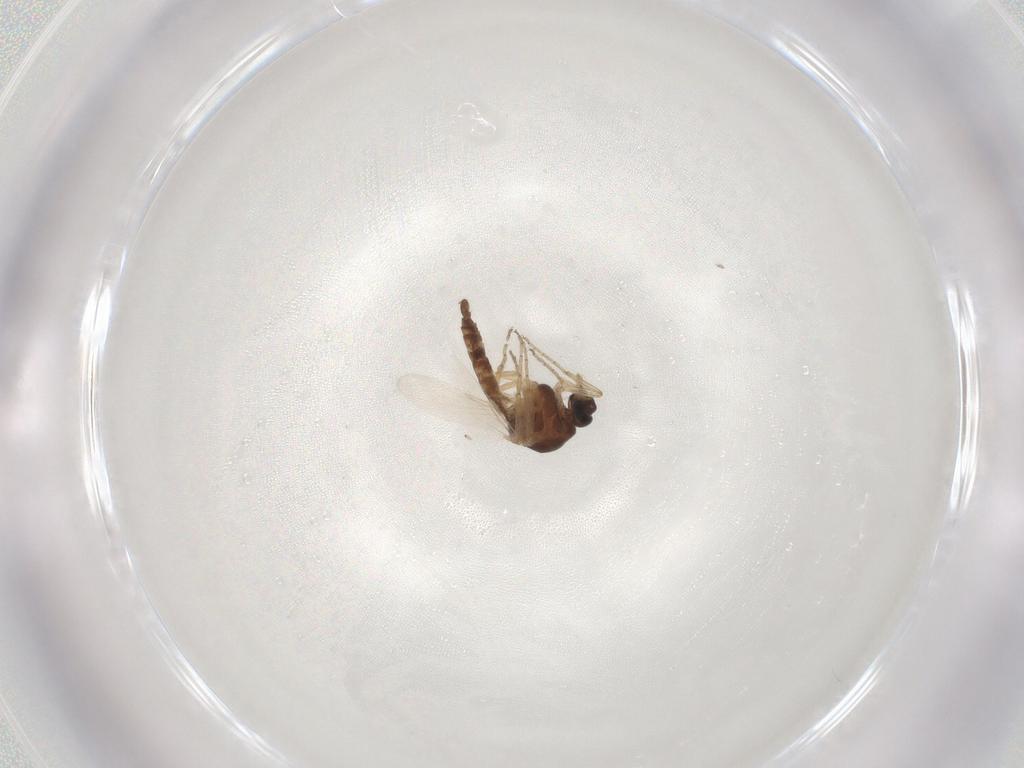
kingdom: Animalia
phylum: Arthropoda
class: Insecta
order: Diptera
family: Ceratopogonidae
